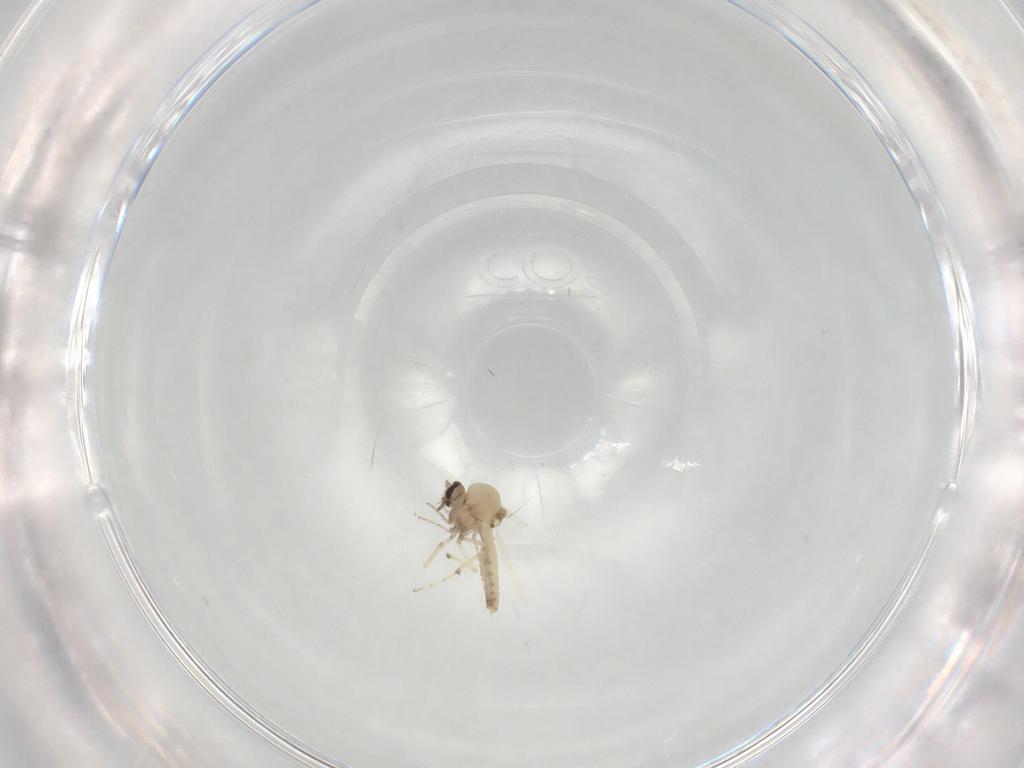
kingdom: Animalia
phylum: Arthropoda
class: Insecta
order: Diptera
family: Ceratopogonidae
